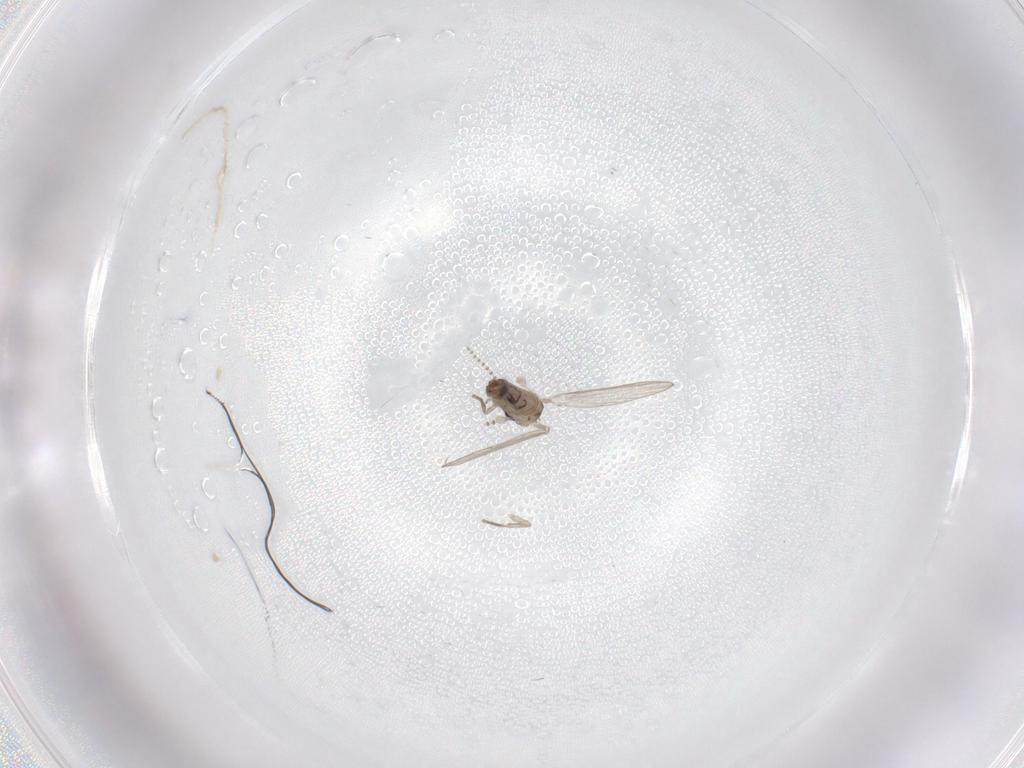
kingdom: Animalia
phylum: Arthropoda
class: Insecta
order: Diptera
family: Psychodidae
